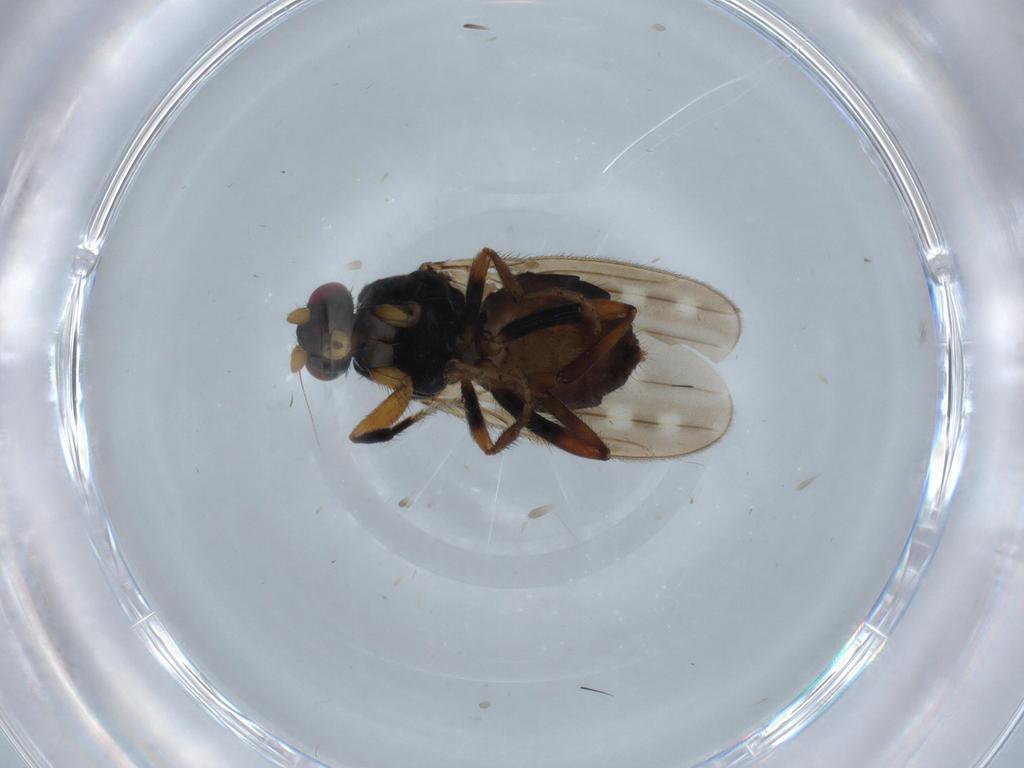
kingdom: Animalia
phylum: Arthropoda
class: Insecta
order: Diptera
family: Sphaeroceridae
